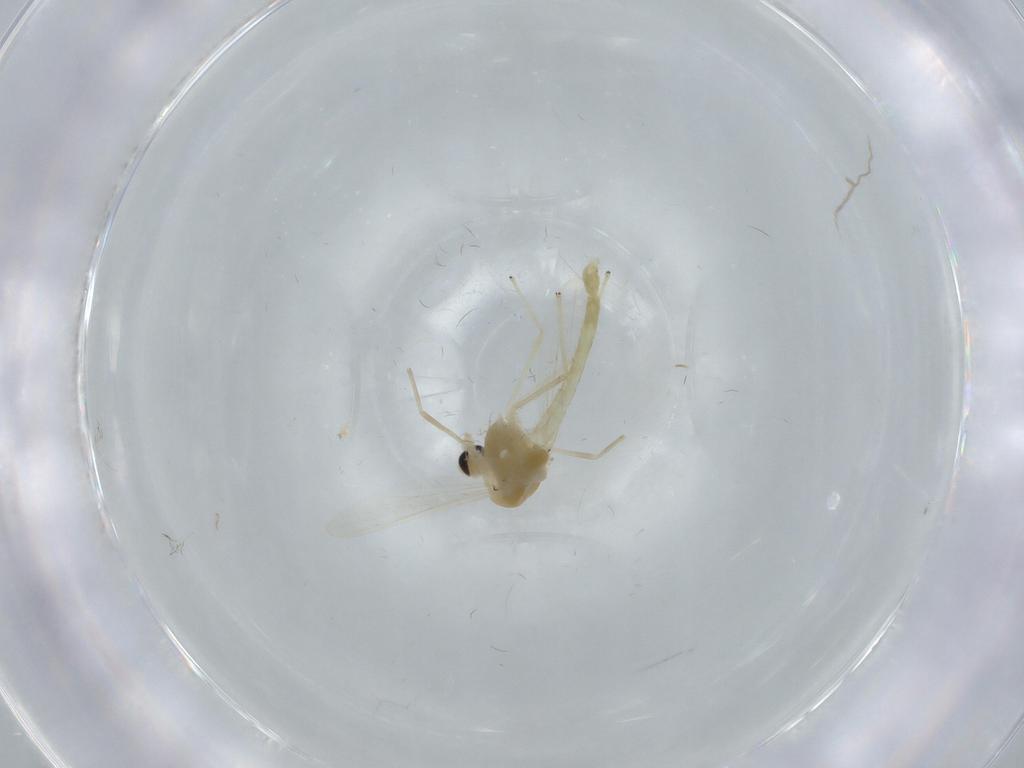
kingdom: Animalia
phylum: Arthropoda
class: Insecta
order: Diptera
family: Chironomidae
